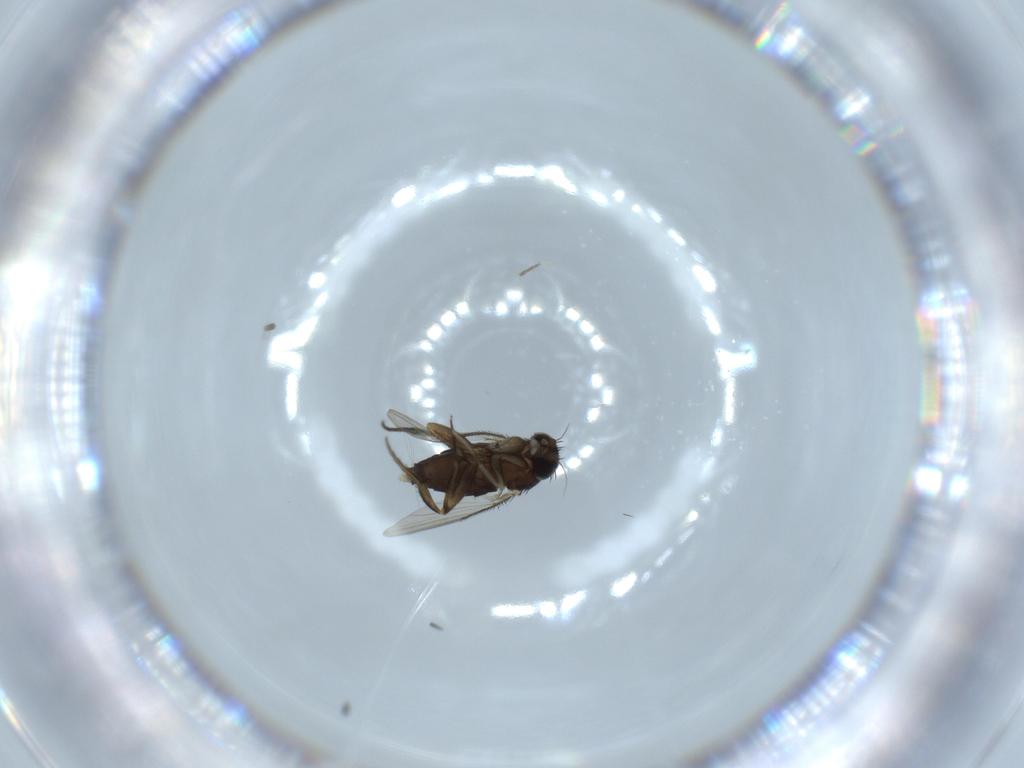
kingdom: Animalia
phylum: Arthropoda
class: Insecta
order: Diptera
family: Phoridae
